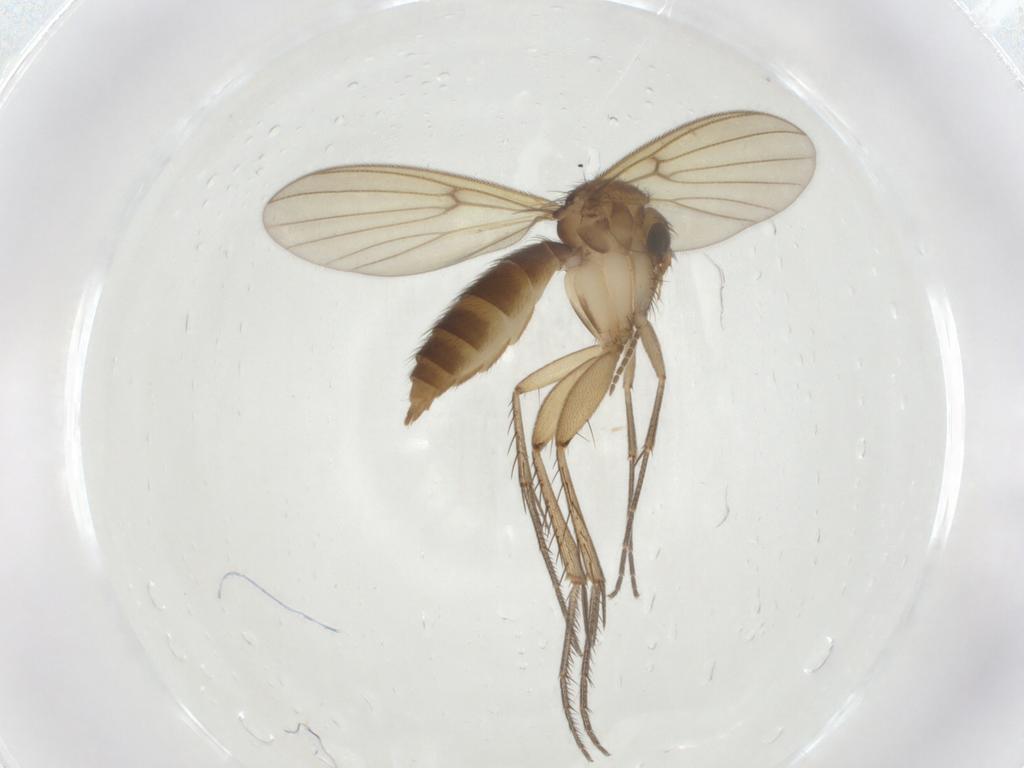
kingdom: Animalia
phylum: Arthropoda
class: Insecta
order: Diptera
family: Mycetophilidae
